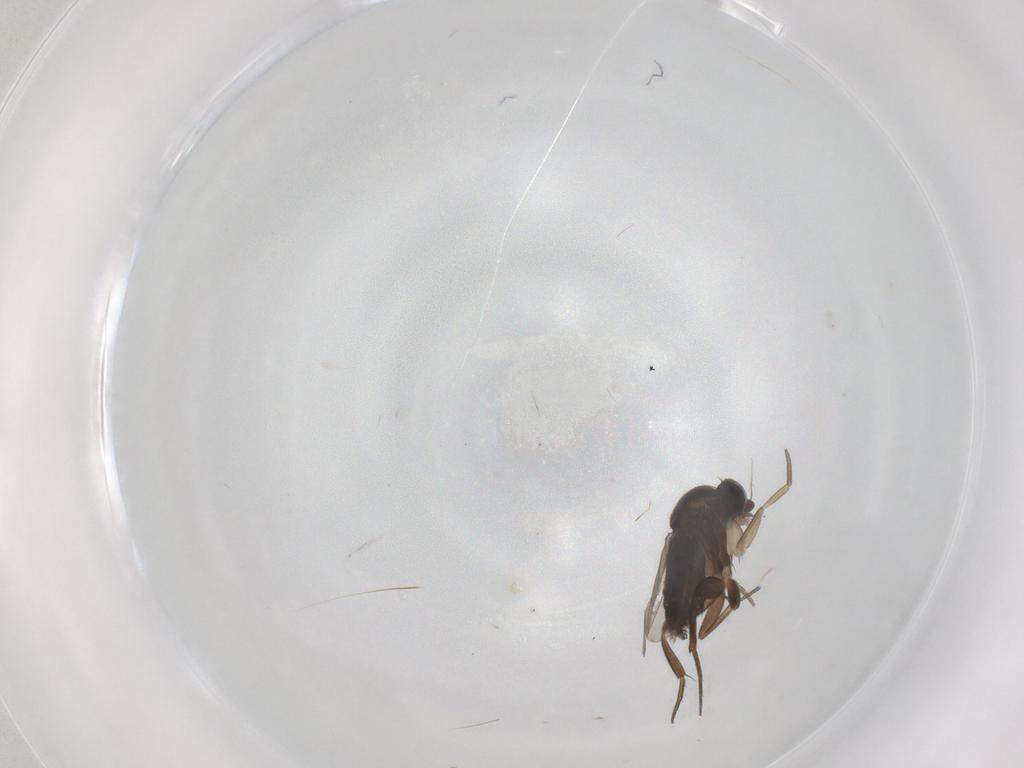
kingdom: Animalia
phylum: Arthropoda
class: Insecta
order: Diptera
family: Phoridae
